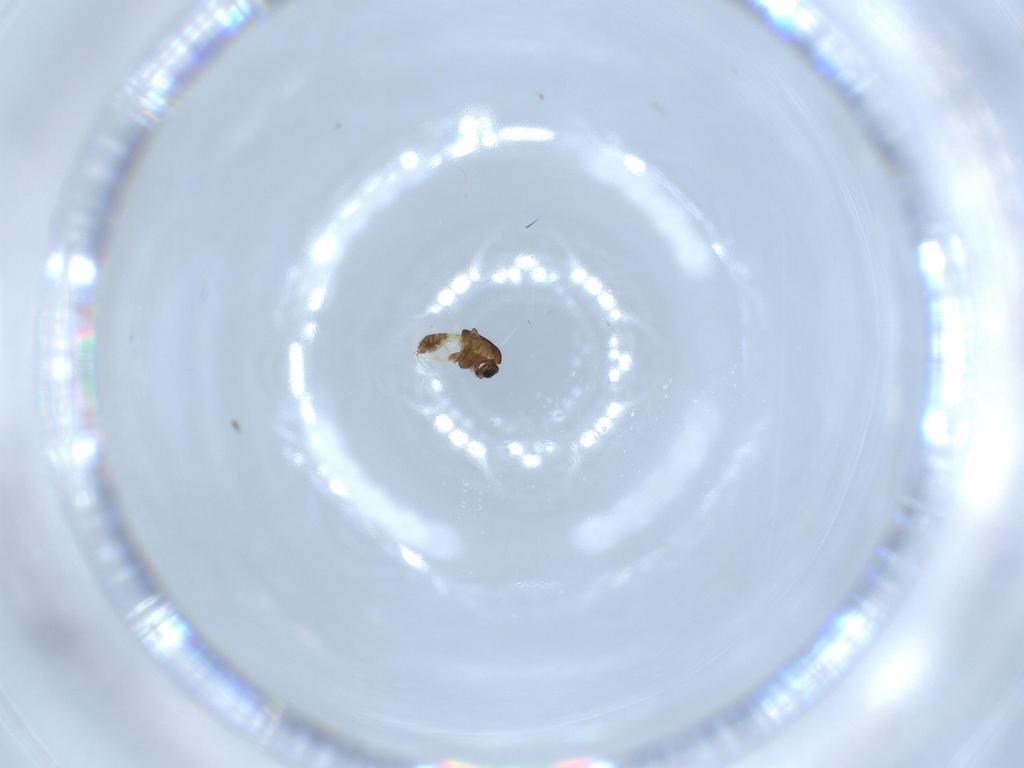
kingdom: Animalia
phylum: Arthropoda
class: Insecta
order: Diptera
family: Chironomidae
